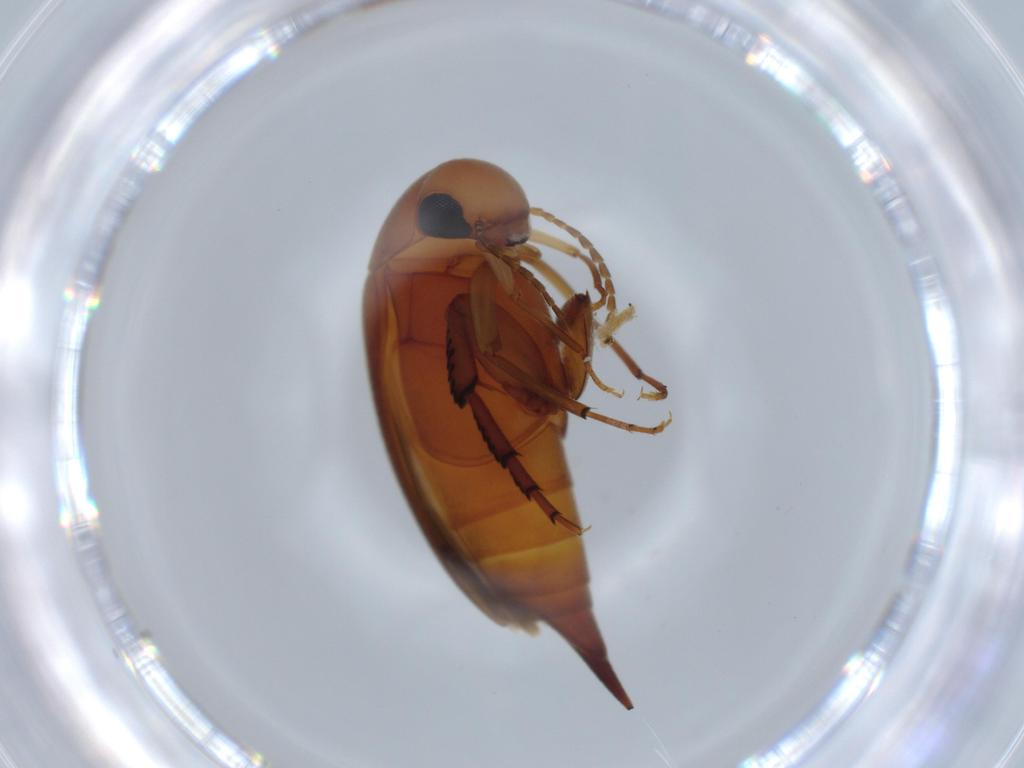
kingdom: Animalia
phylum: Arthropoda
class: Insecta
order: Coleoptera
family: Mordellidae
